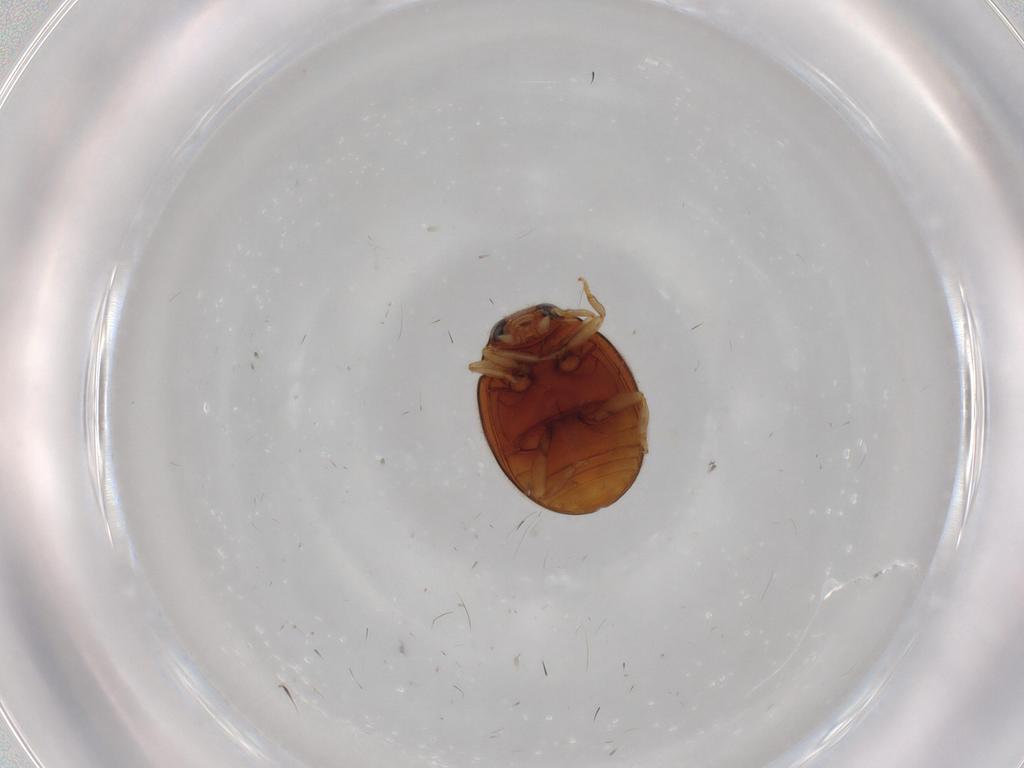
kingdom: Animalia
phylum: Arthropoda
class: Insecta
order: Coleoptera
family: Coccinellidae
